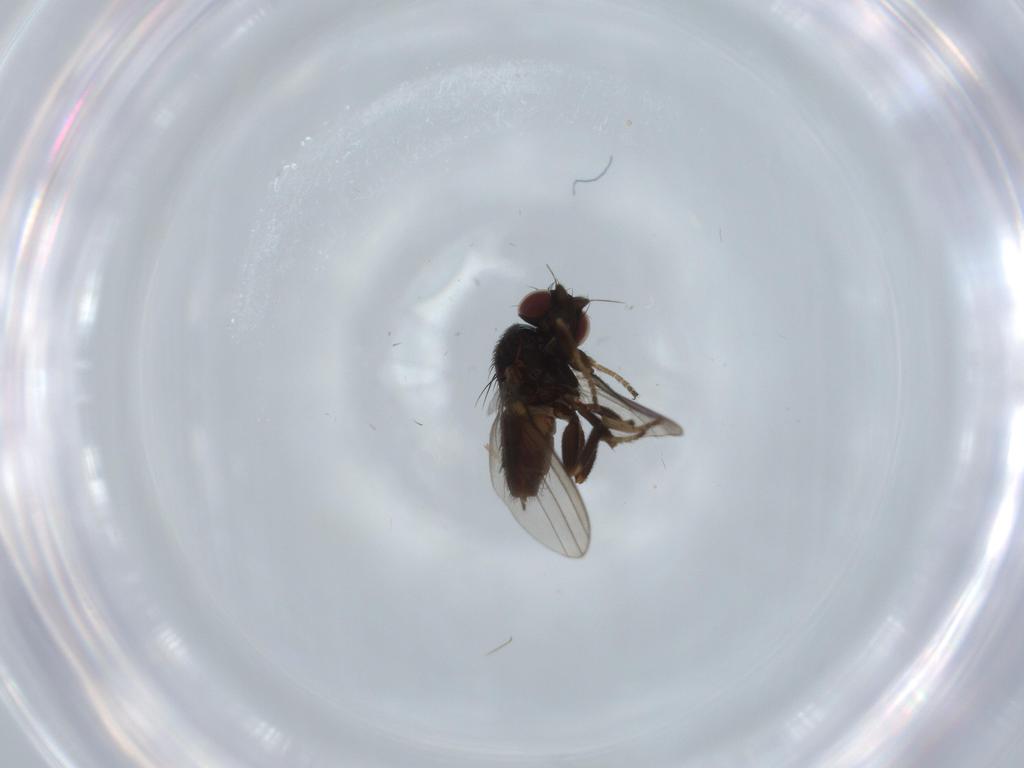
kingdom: Animalia
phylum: Arthropoda
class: Insecta
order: Diptera
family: Milichiidae
